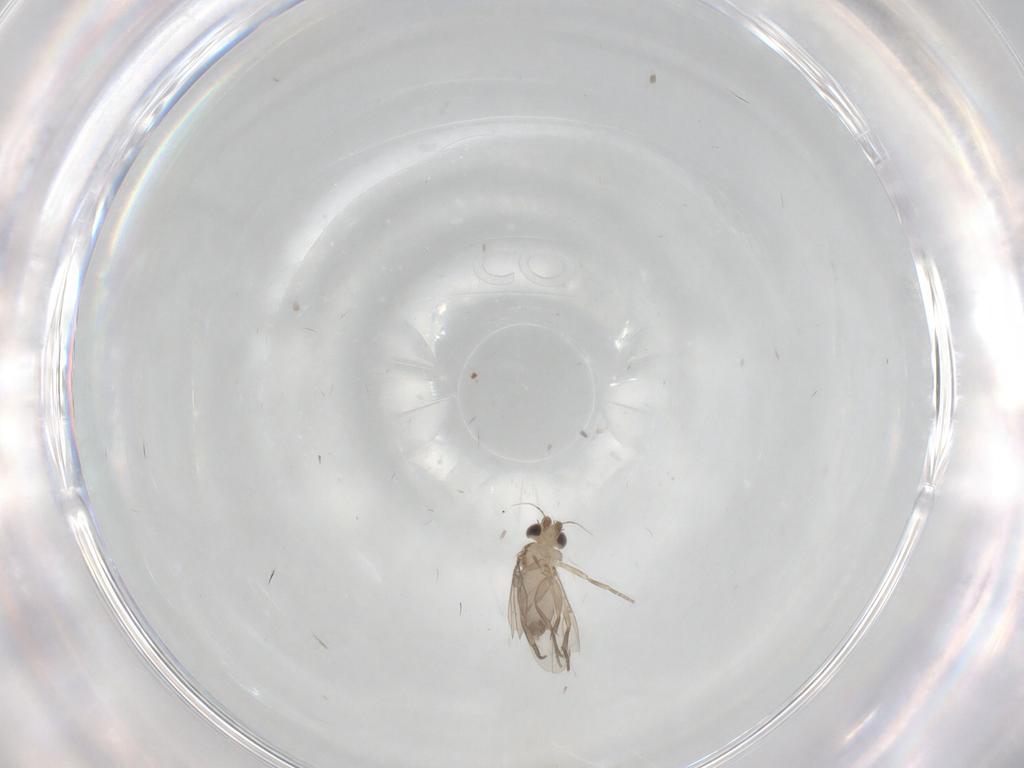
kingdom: Animalia
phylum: Arthropoda
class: Insecta
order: Diptera
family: Phoridae
